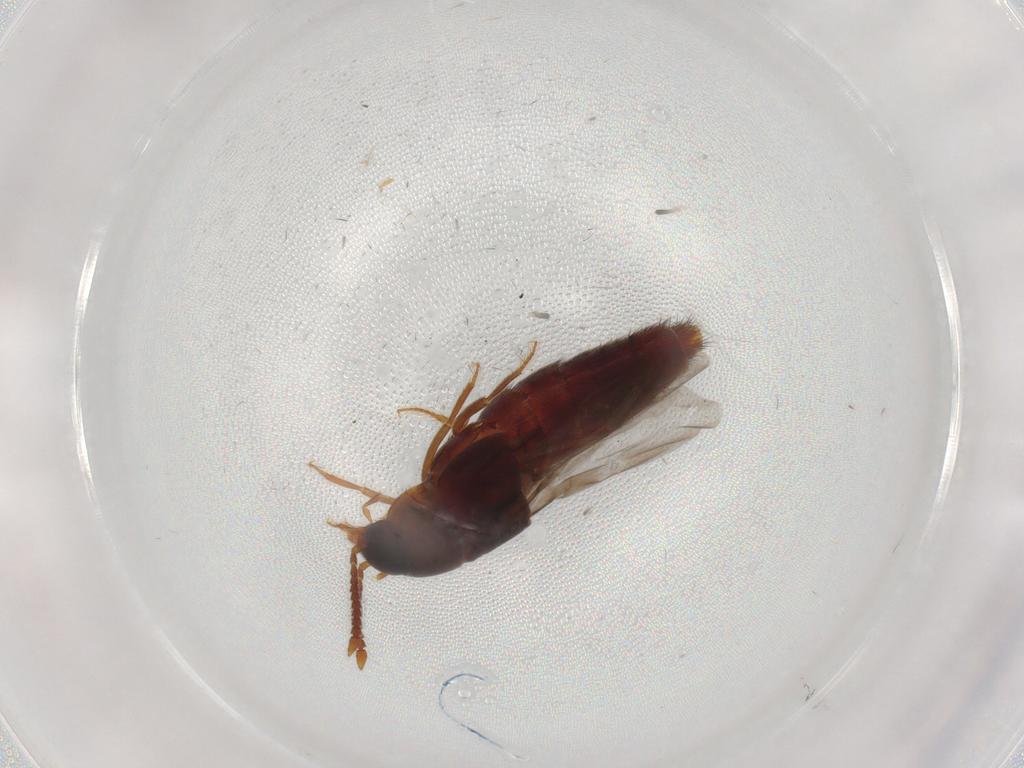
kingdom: Animalia
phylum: Arthropoda
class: Insecta
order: Coleoptera
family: Staphylinidae
